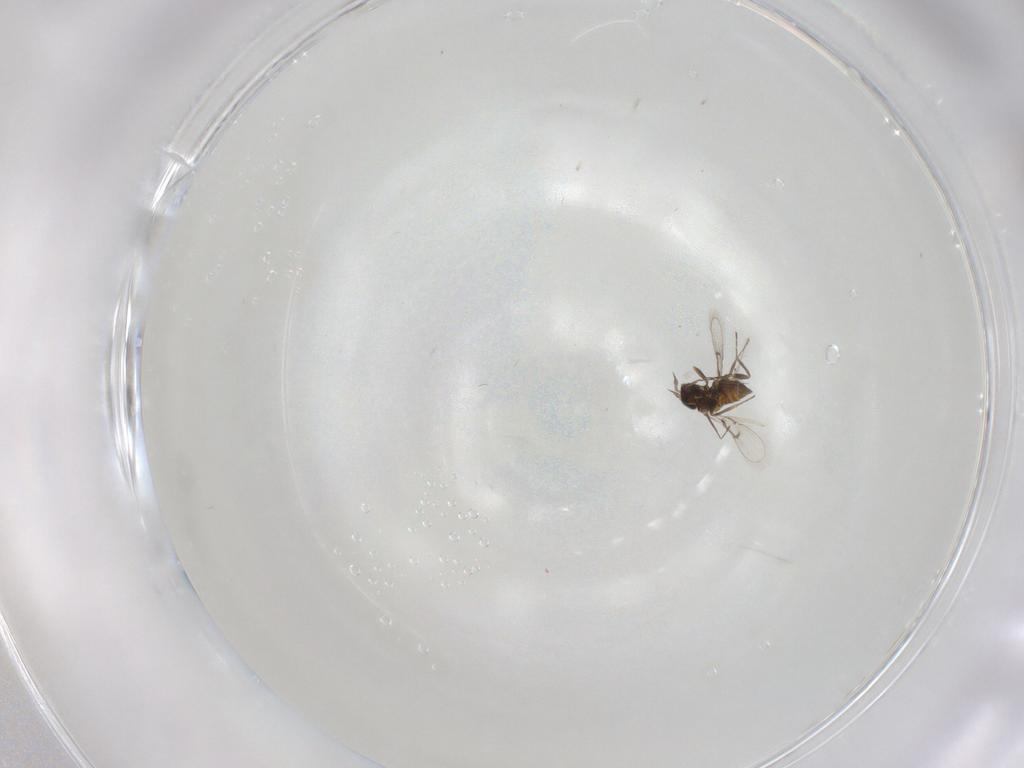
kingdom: Animalia
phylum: Arthropoda
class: Insecta
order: Hymenoptera
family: Trichogrammatidae
